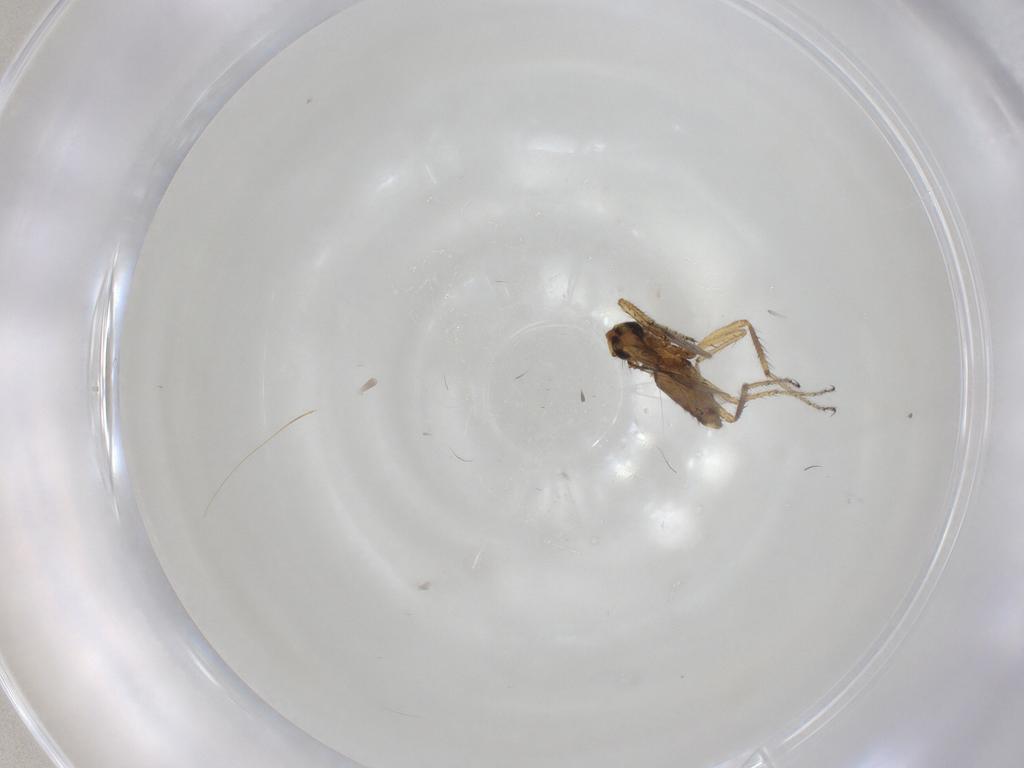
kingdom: Animalia
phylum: Arthropoda
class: Insecta
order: Diptera
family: Ceratopogonidae
